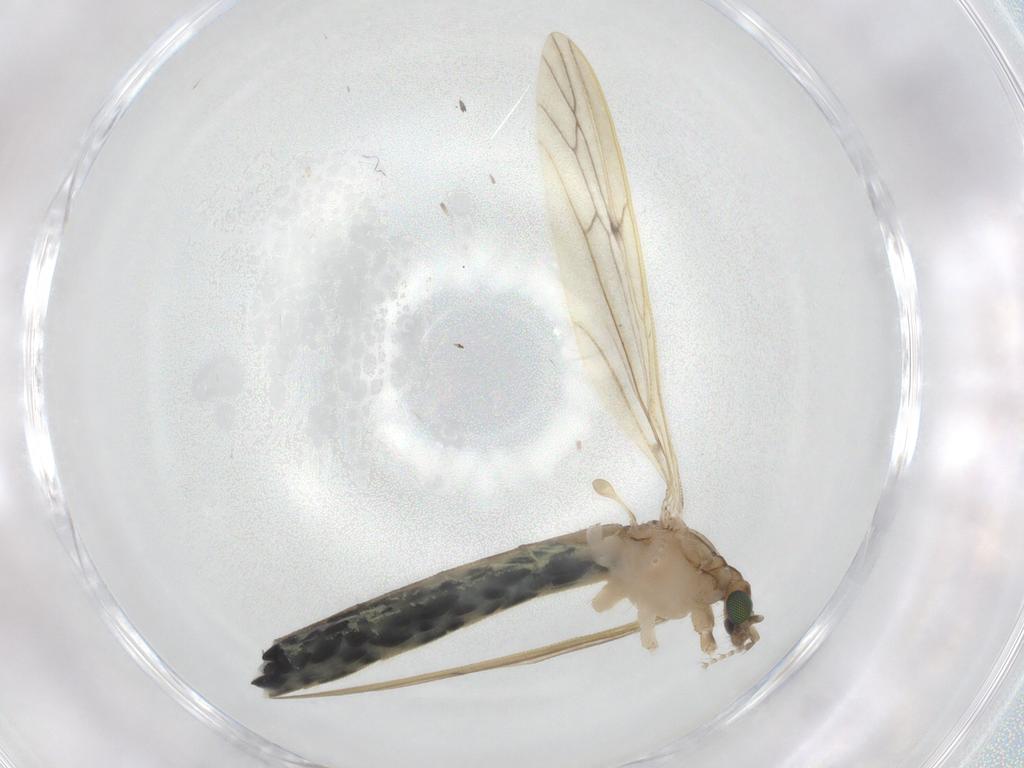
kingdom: Animalia
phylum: Arthropoda
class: Insecta
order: Diptera
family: Limoniidae
